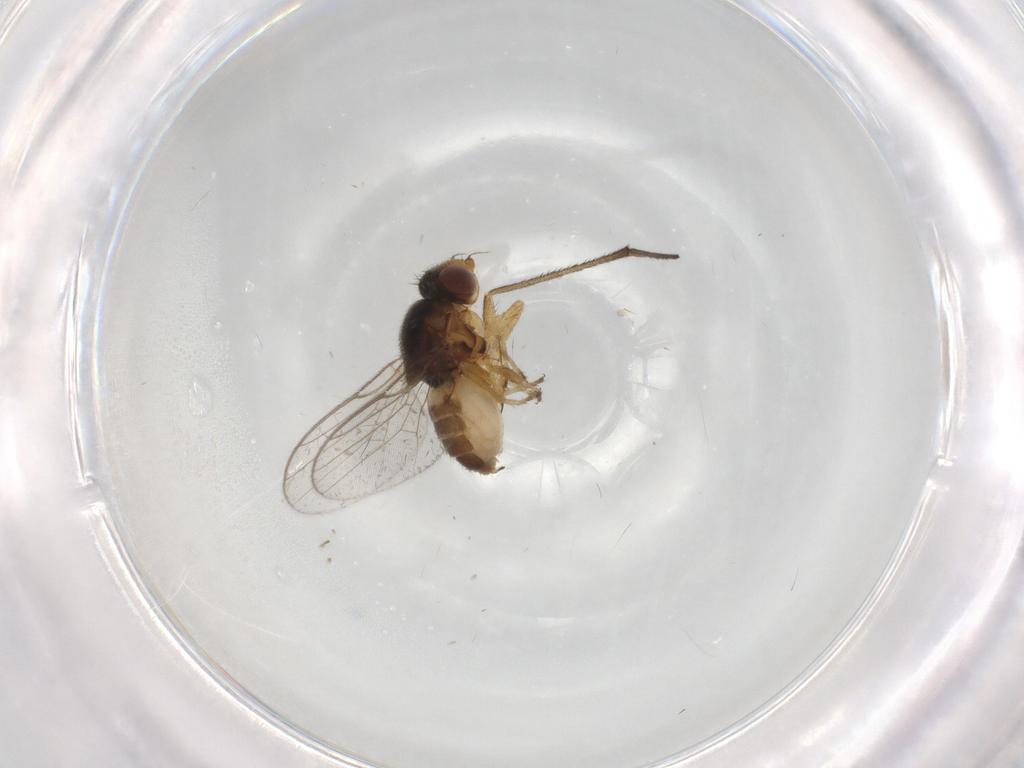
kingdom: Animalia
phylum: Arthropoda
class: Insecta
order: Diptera
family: Chloropidae
